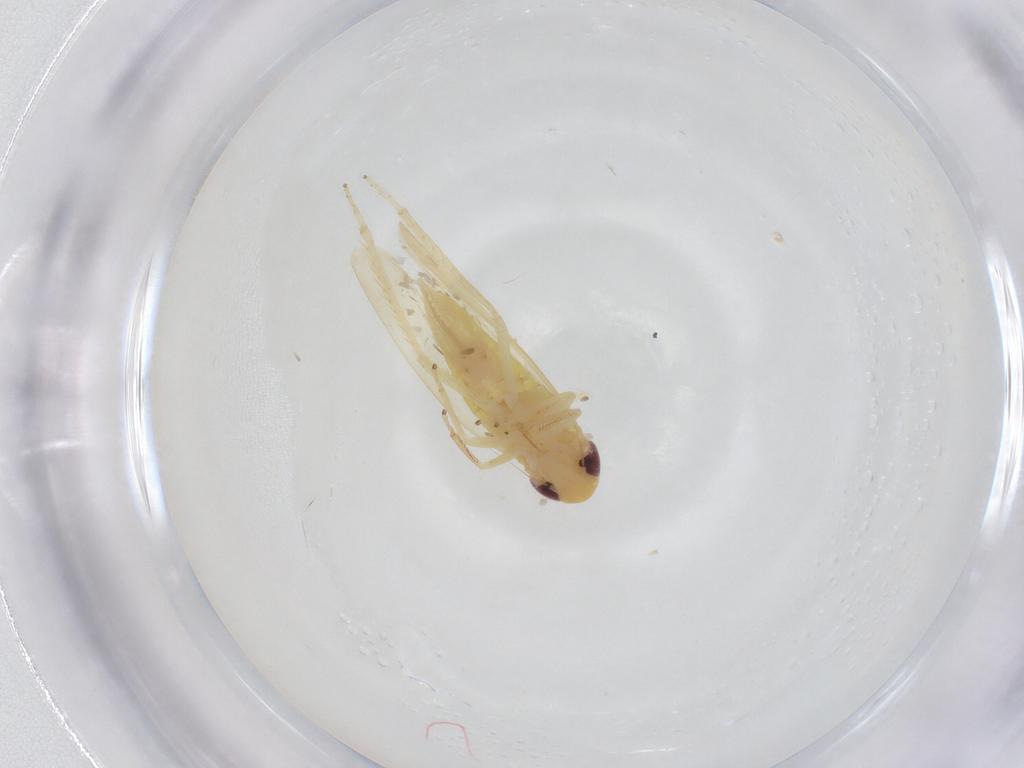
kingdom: Animalia
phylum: Arthropoda
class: Insecta
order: Hemiptera
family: Cicadellidae
